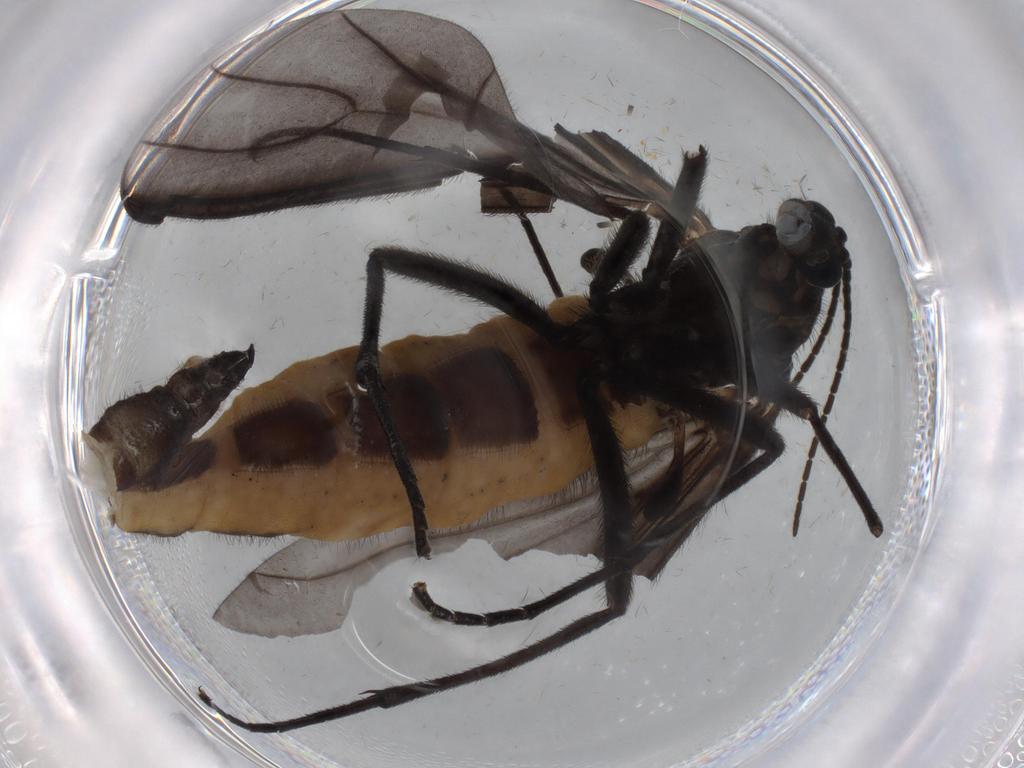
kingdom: Animalia
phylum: Arthropoda
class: Insecta
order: Diptera
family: Sciaridae
